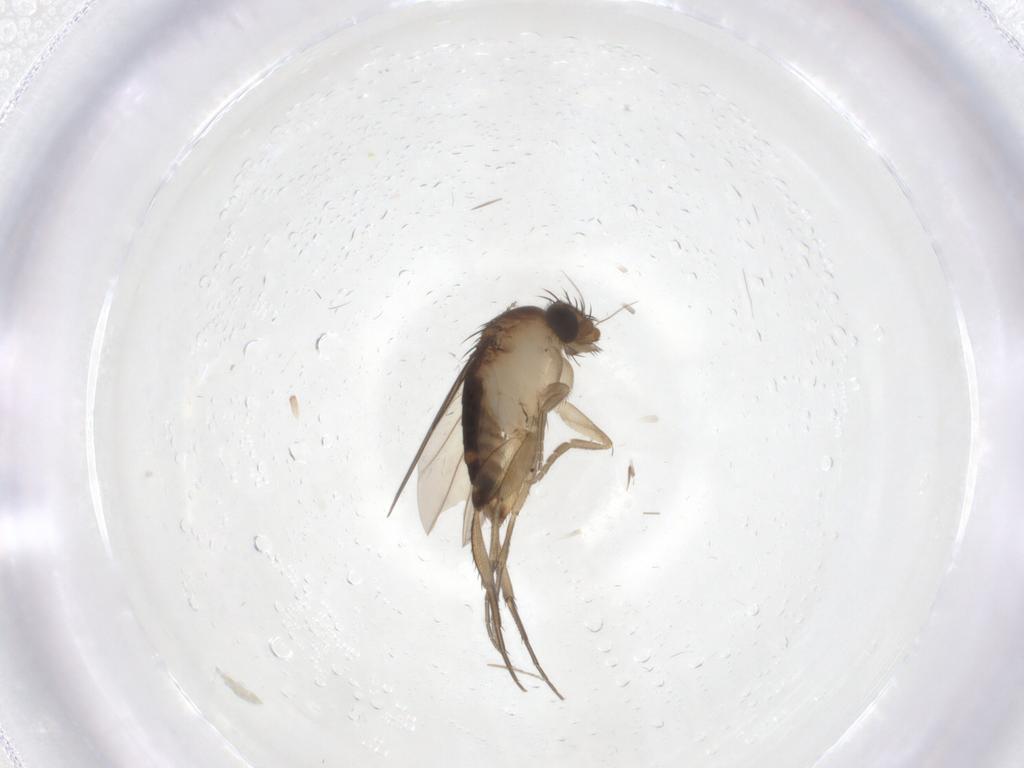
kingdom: Animalia
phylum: Arthropoda
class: Insecta
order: Diptera
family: Phoridae
